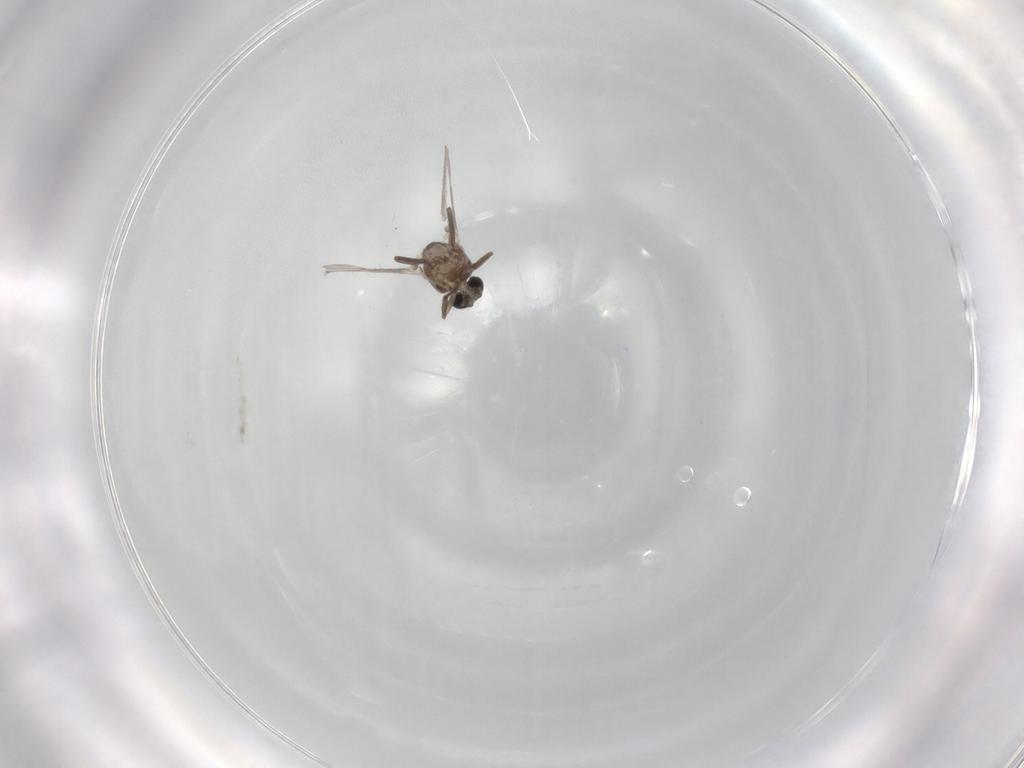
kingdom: Animalia
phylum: Arthropoda
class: Insecta
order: Diptera
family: Ceratopogonidae
